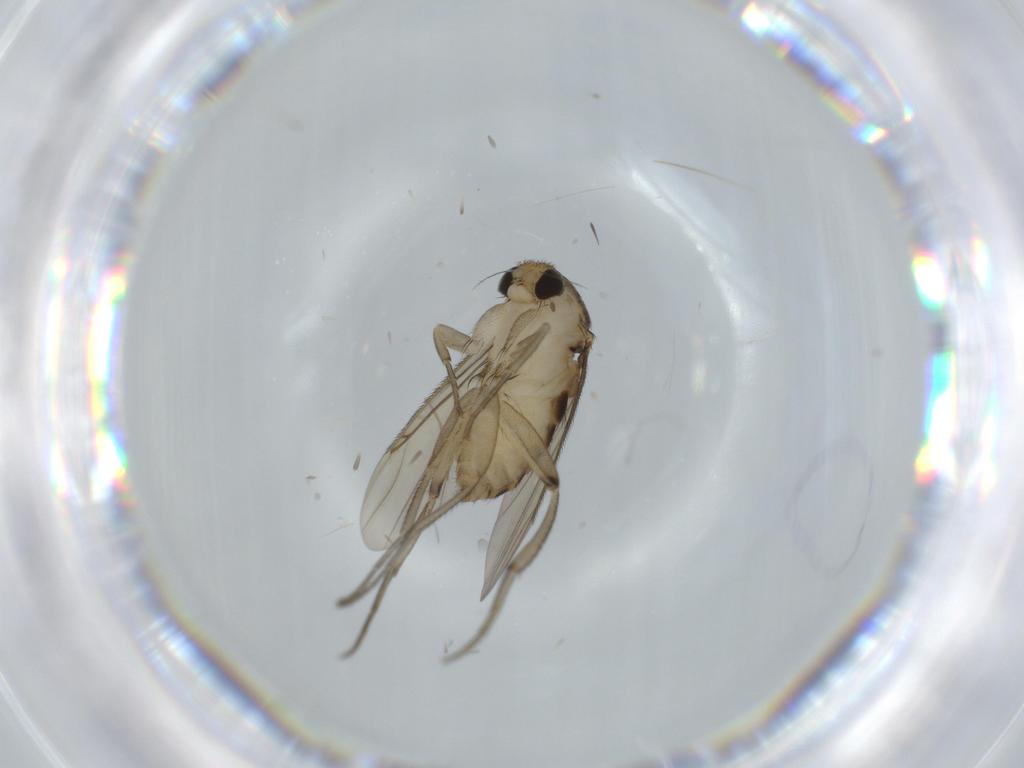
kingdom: Animalia
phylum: Arthropoda
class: Insecta
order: Diptera
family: Phoridae
